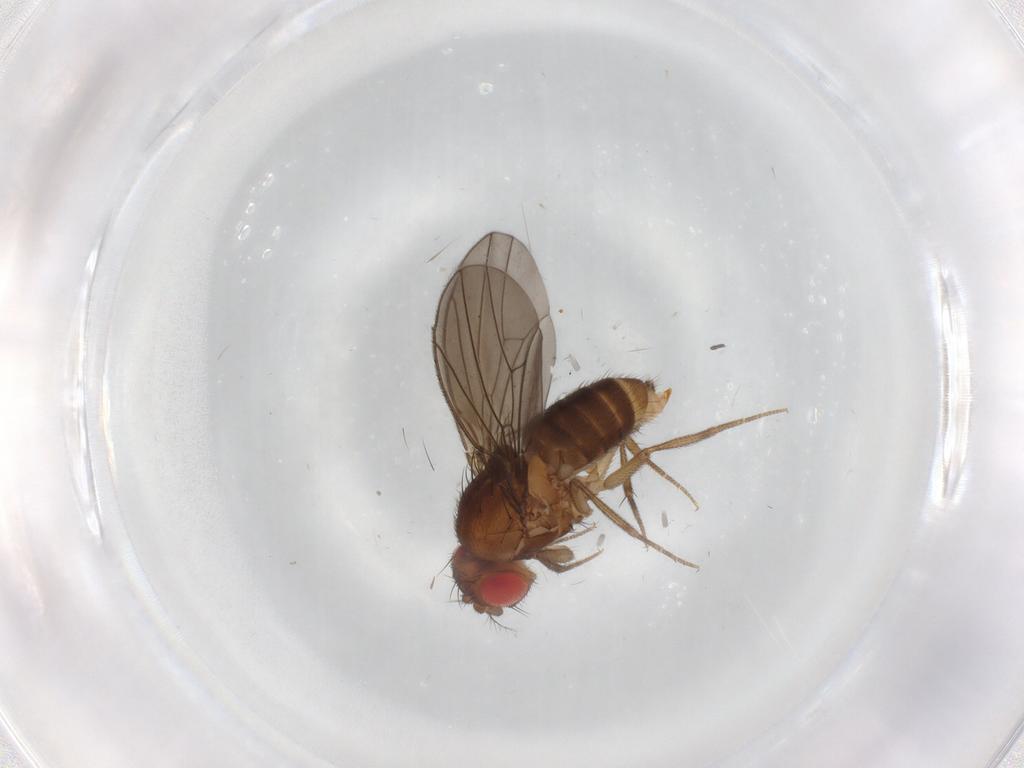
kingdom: Animalia
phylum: Arthropoda
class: Insecta
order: Diptera
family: Drosophilidae
